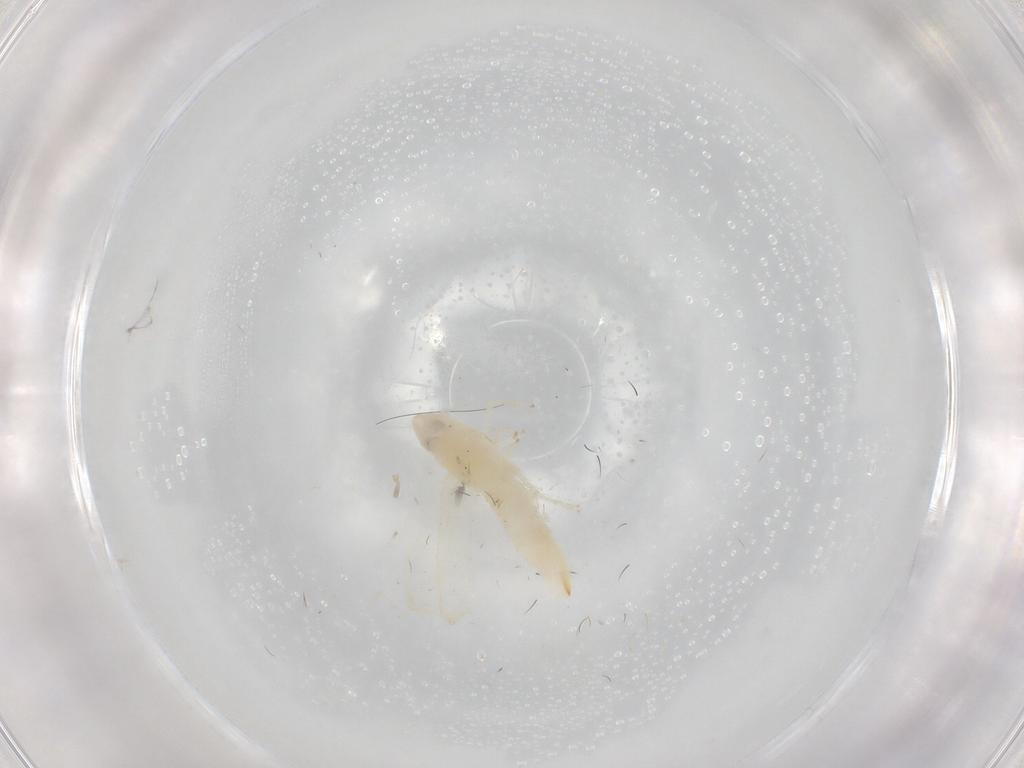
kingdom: Animalia
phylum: Arthropoda
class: Insecta
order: Hemiptera
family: Cicadellidae
